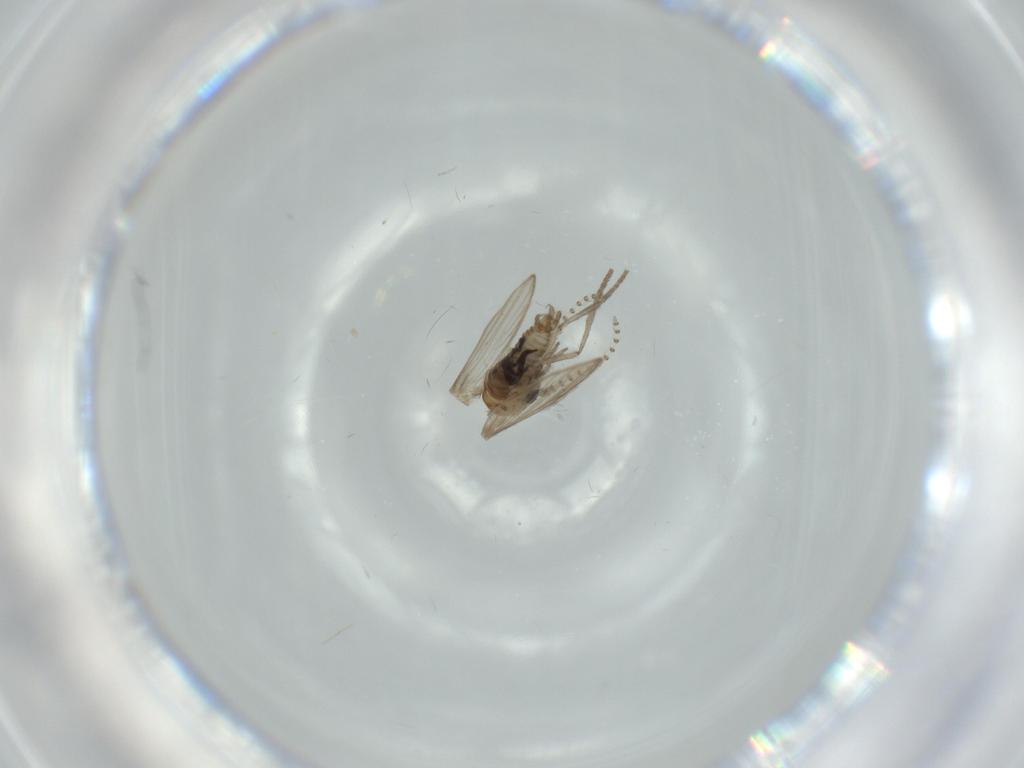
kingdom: Animalia
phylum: Arthropoda
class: Insecta
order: Diptera
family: Psychodidae
